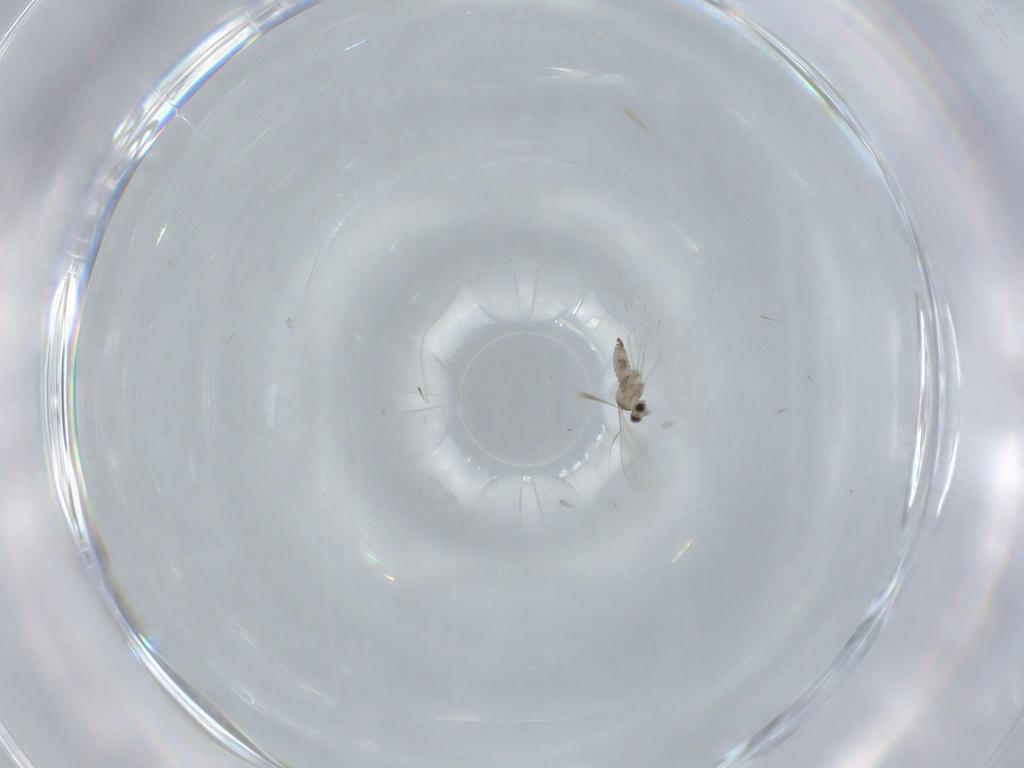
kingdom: Animalia
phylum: Arthropoda
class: Insecta
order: Diptera
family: Cecidomyiidae
